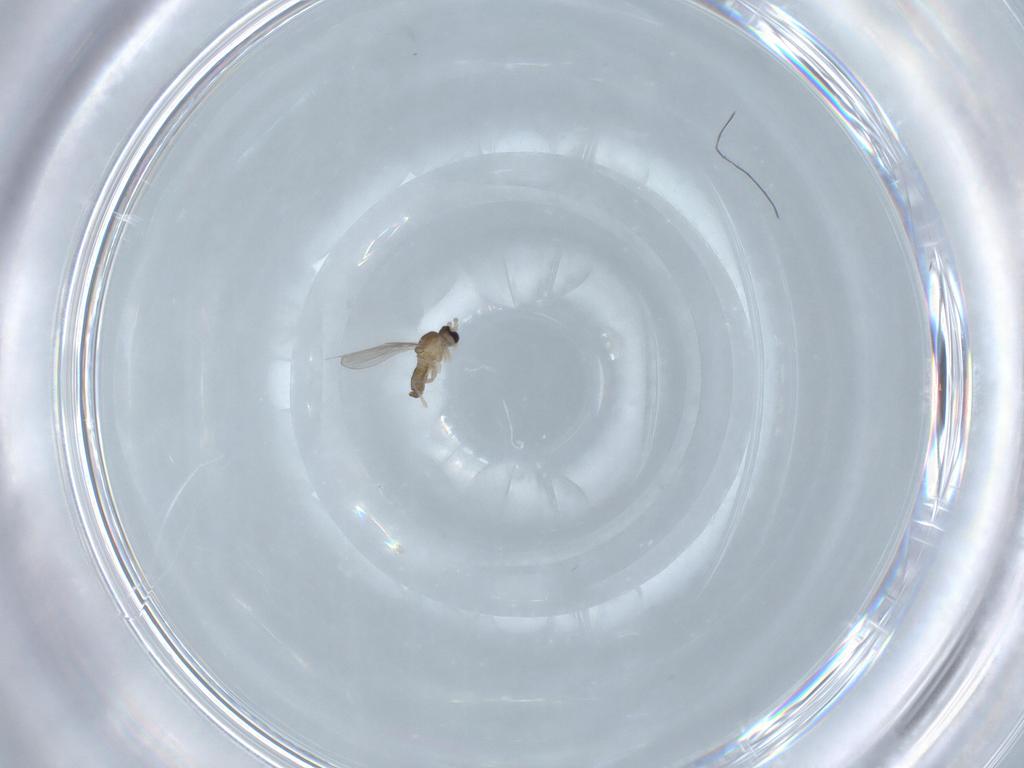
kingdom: Animalia
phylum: Arthropoda
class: Insecta
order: Diptera
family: Cecidomyiidae
